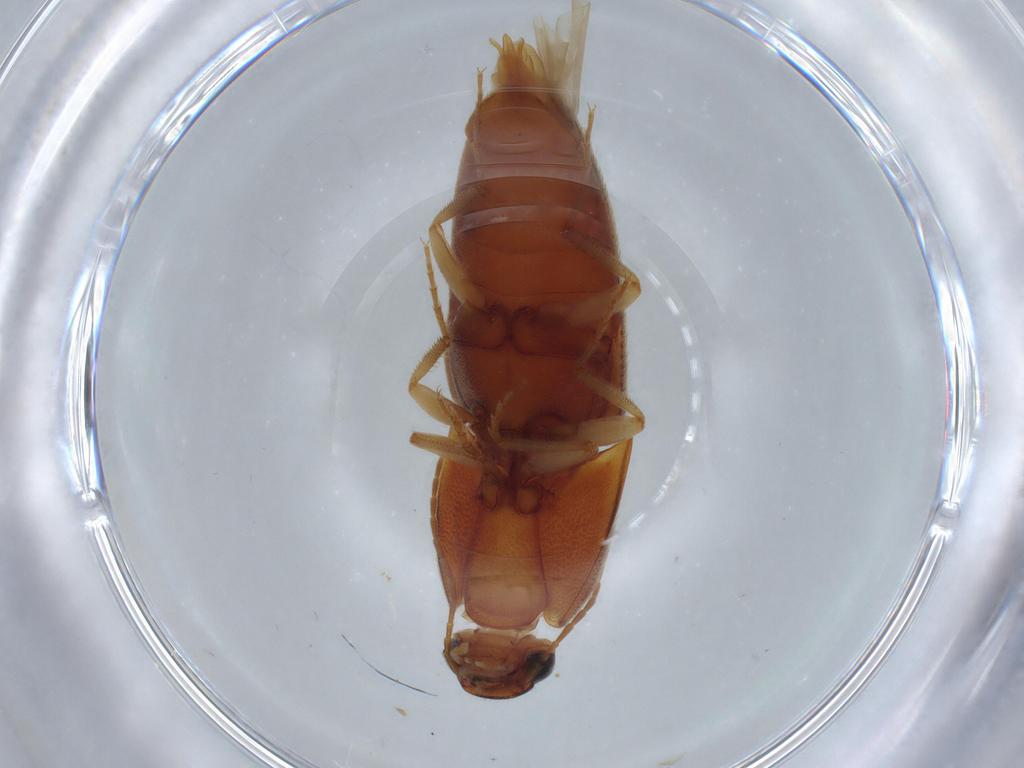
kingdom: Animalia
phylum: Arthropoda
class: Insecta
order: Coleoptera
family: Elateridae
